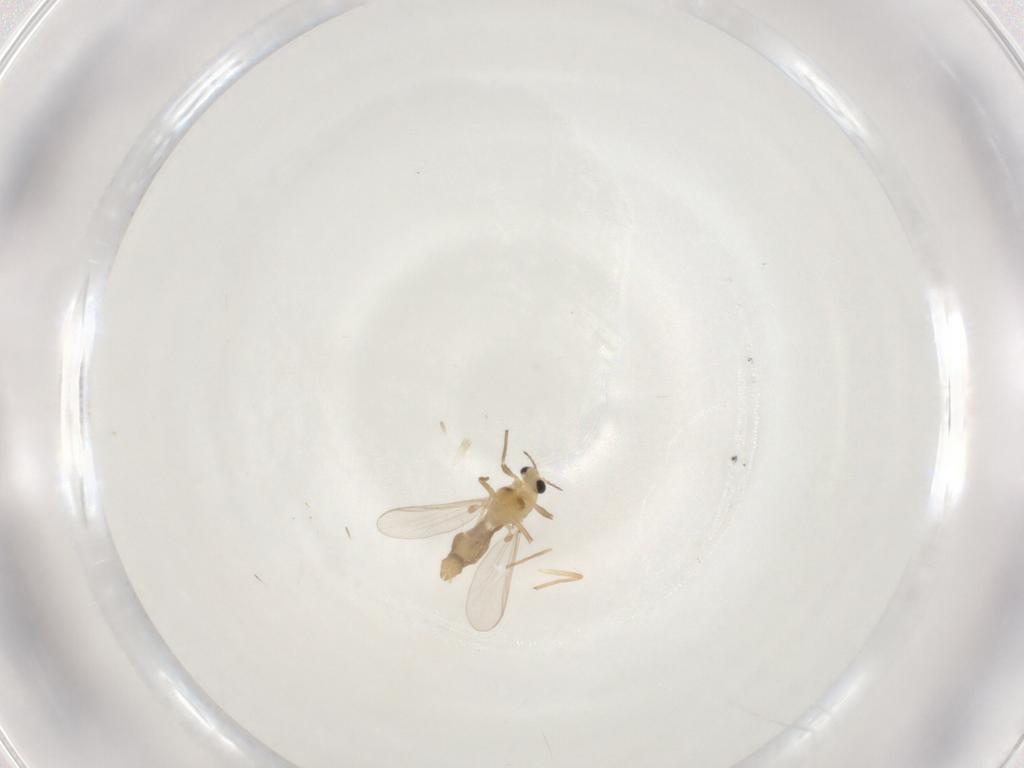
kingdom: Animalia
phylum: Arthropoda
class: Insecta
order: Diptera
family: Chironomidae
